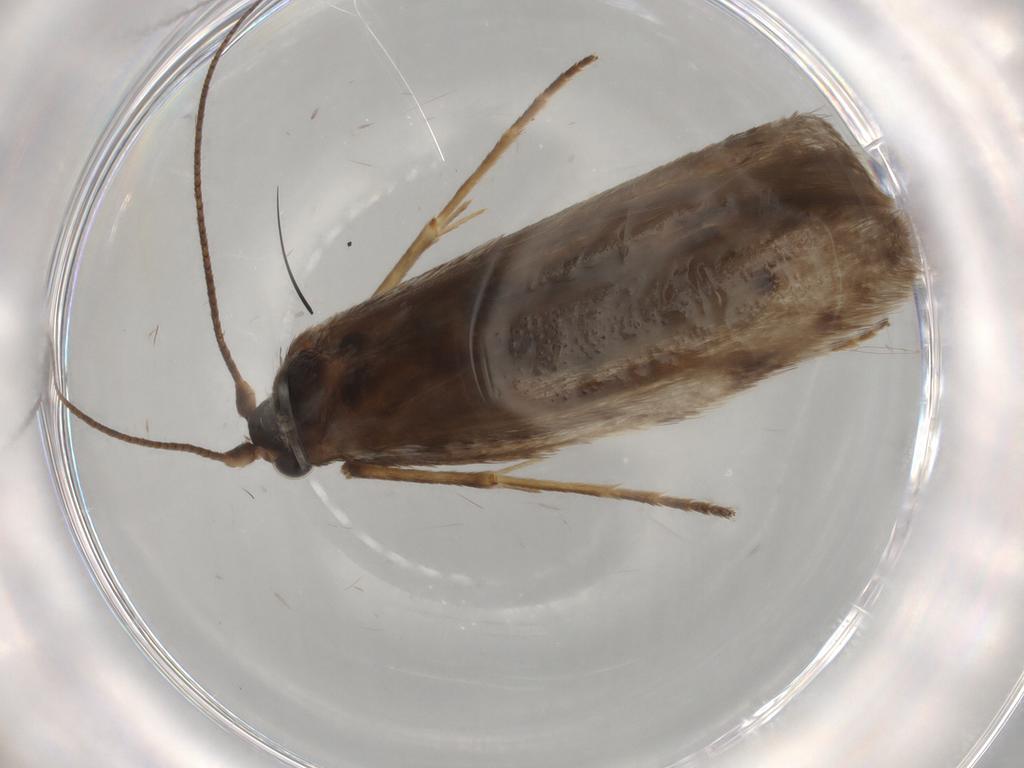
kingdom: Animalia
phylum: Arthropoda
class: Insecta
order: Lepidoptera
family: Adelidae
